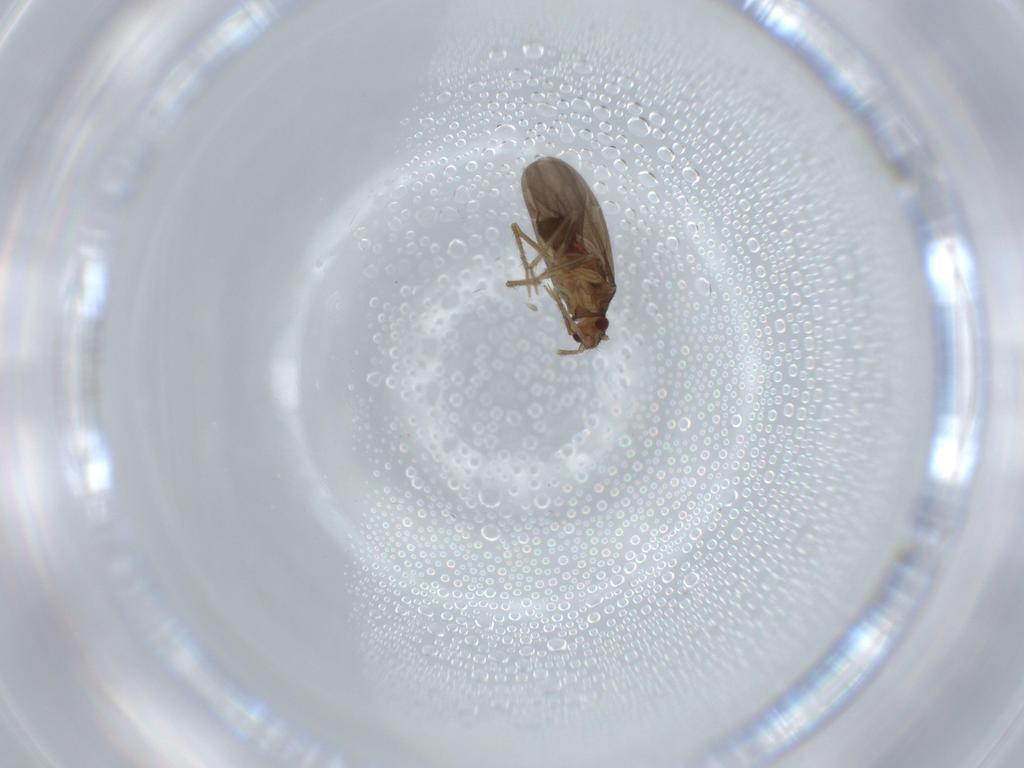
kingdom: Animalia
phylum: Arthropoda
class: Insecta
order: Hemiptera
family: Ceratocombidae
